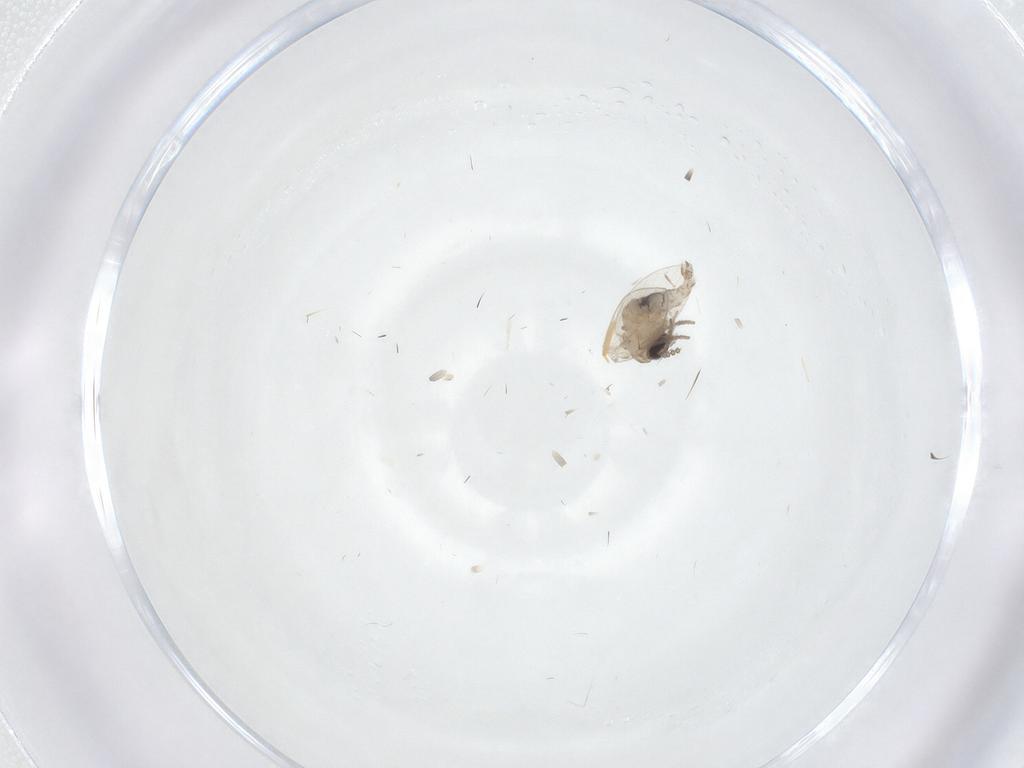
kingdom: Animalia
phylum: Arthropoda
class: Insecta
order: Diptera
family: Psychodidae
